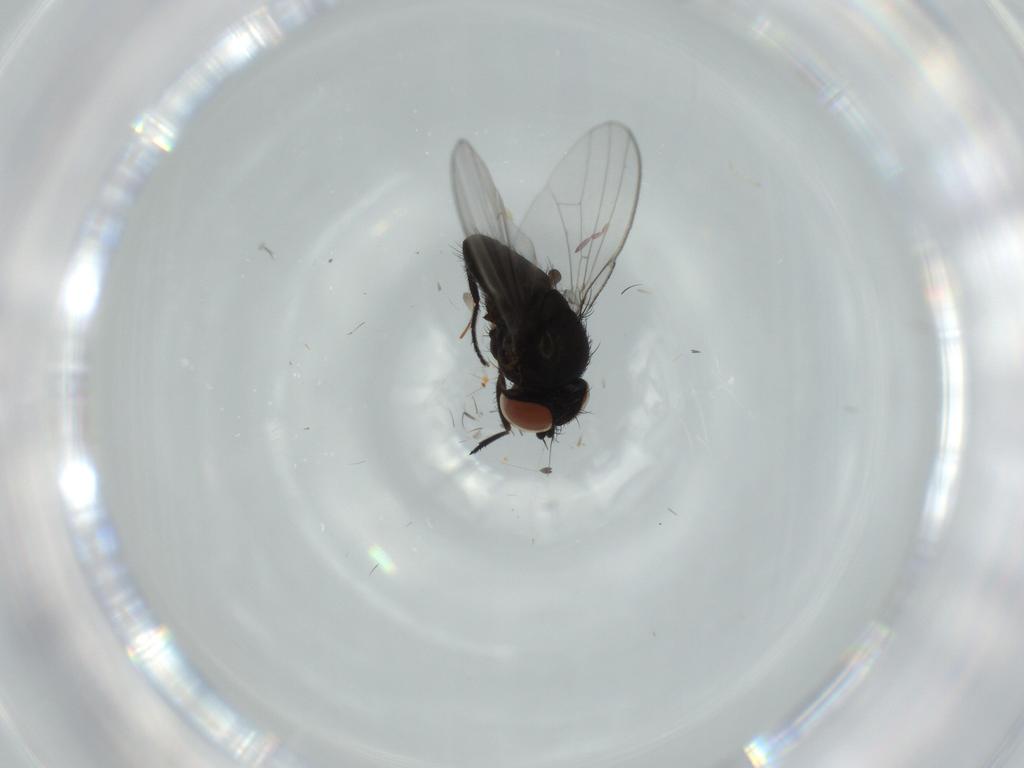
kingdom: Animalia
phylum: Arthropoda
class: Insecta
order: Diptera
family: Milichiidae
